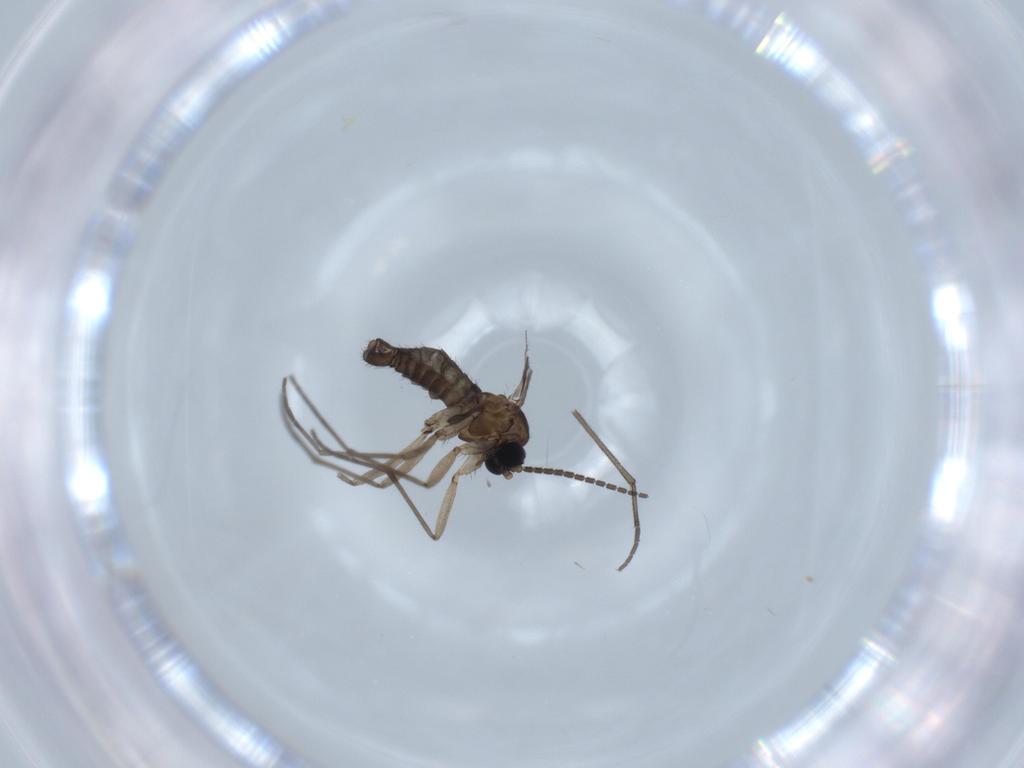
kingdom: Animalia
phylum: Arthropoda
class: Insecta
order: Diptera
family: Sciaridae
